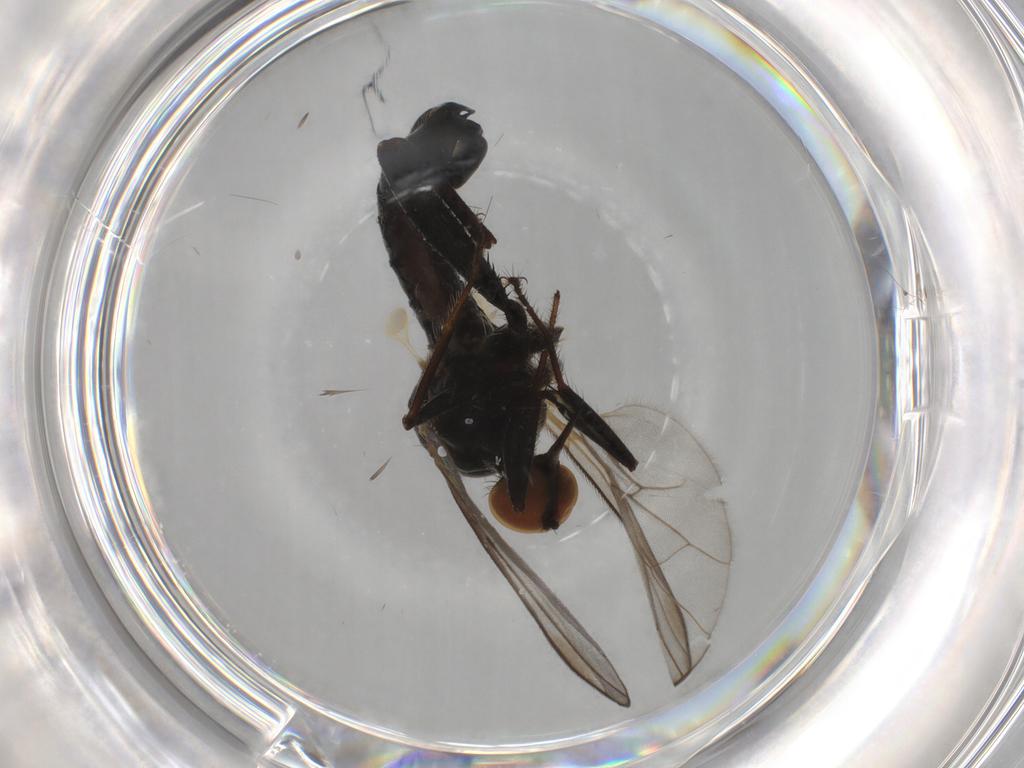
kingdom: Animalia
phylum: Arthropoda
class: Insecta
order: Diptera
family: Hybotidae
